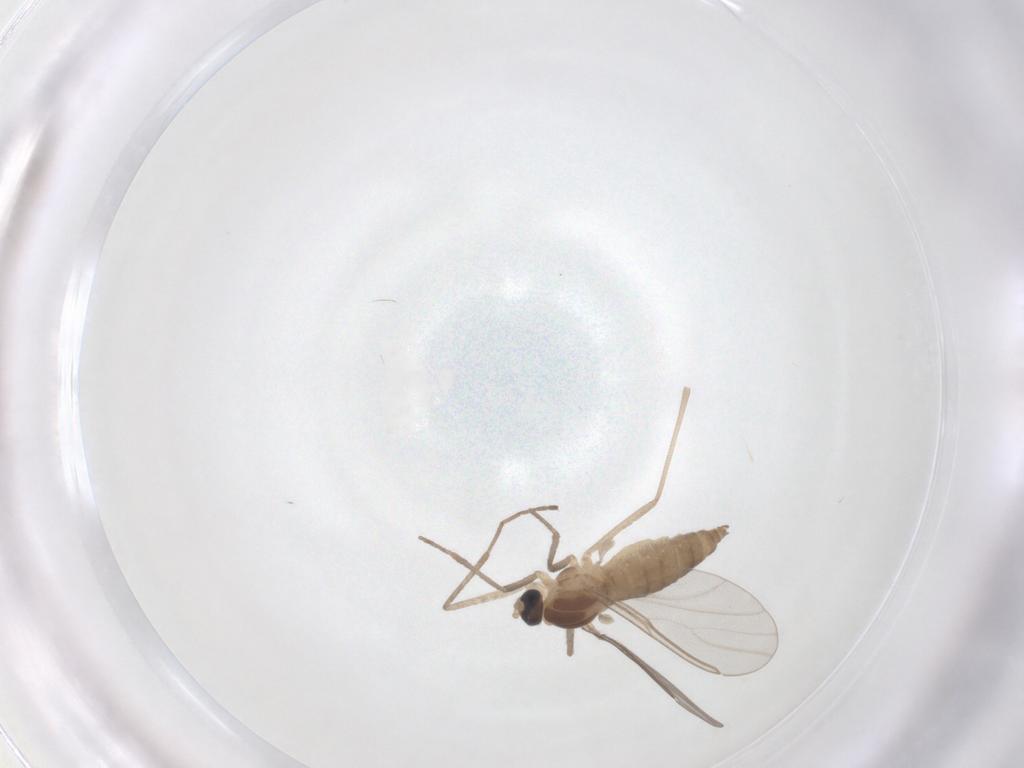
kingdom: Animalia
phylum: Arthropoda
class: Insecta
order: Diptera
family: Cecidomyiidae
